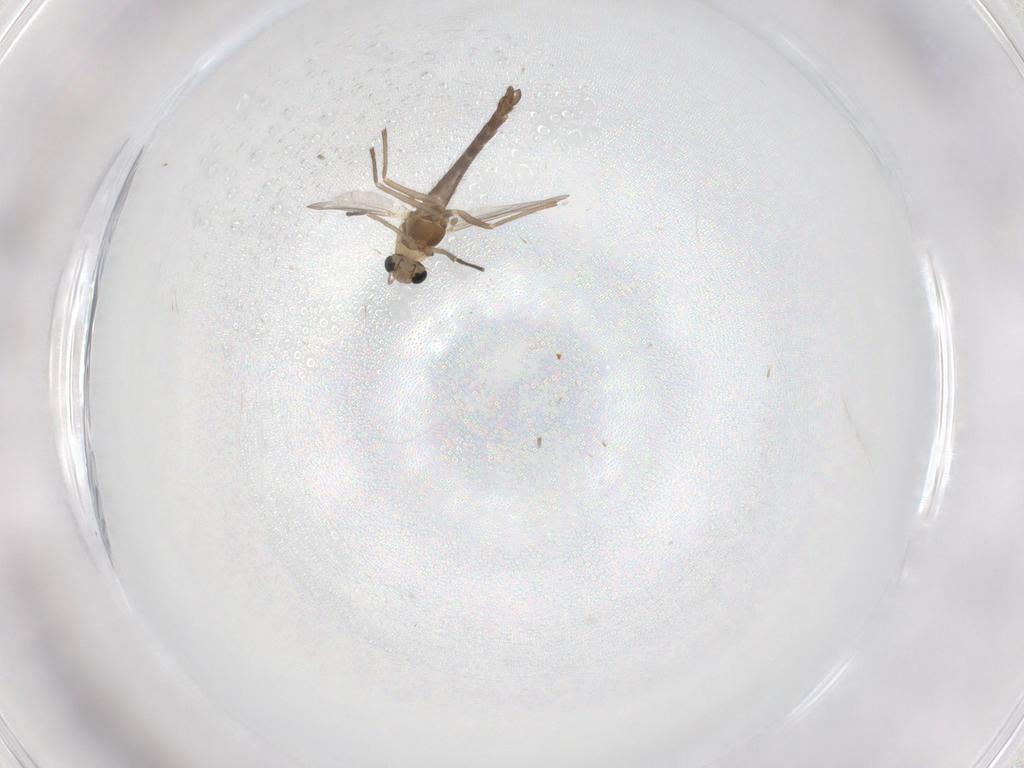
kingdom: Animalia
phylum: Arthropoda
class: Insecta
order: Diptera
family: Chironomidae
